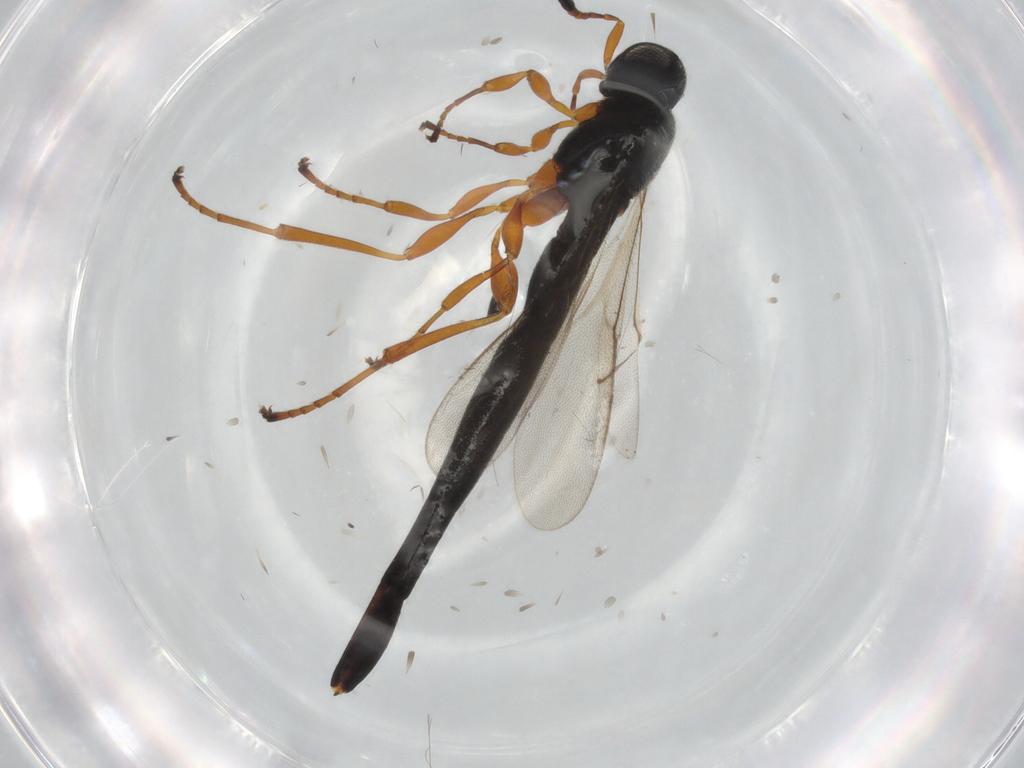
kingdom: Animalia
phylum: Arthropoda
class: Insecta
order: Hymenoptera
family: Scelionidae
